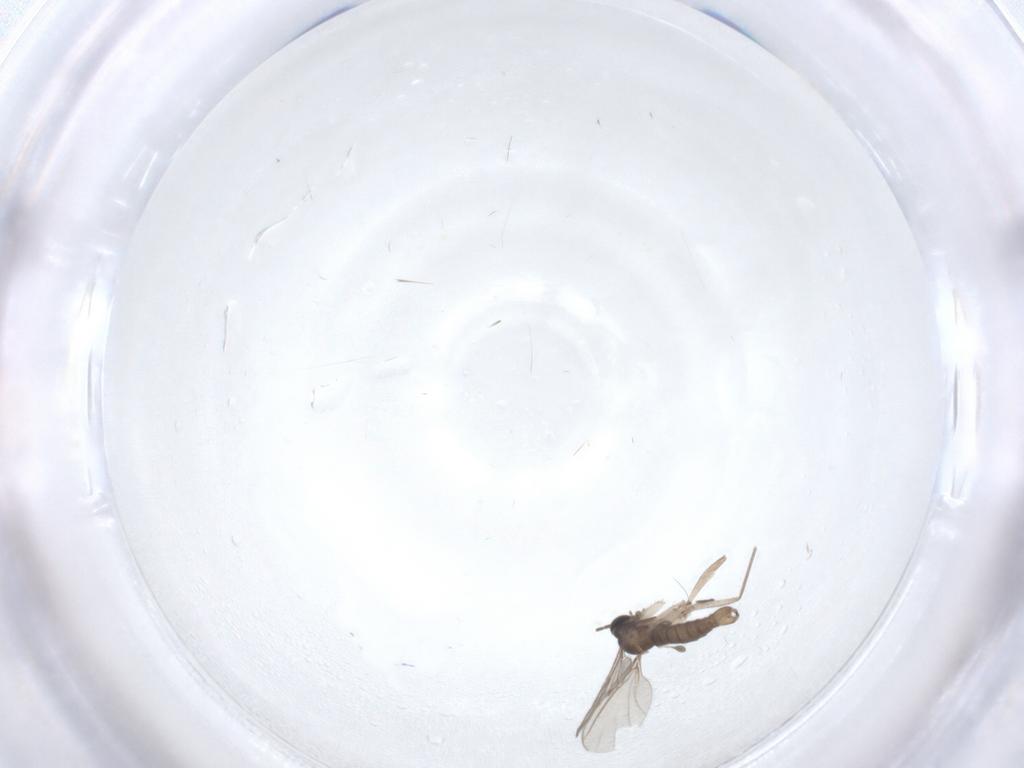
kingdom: Animalia
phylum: Arthropoda
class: Insecta
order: Diptera
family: Sciaridae
